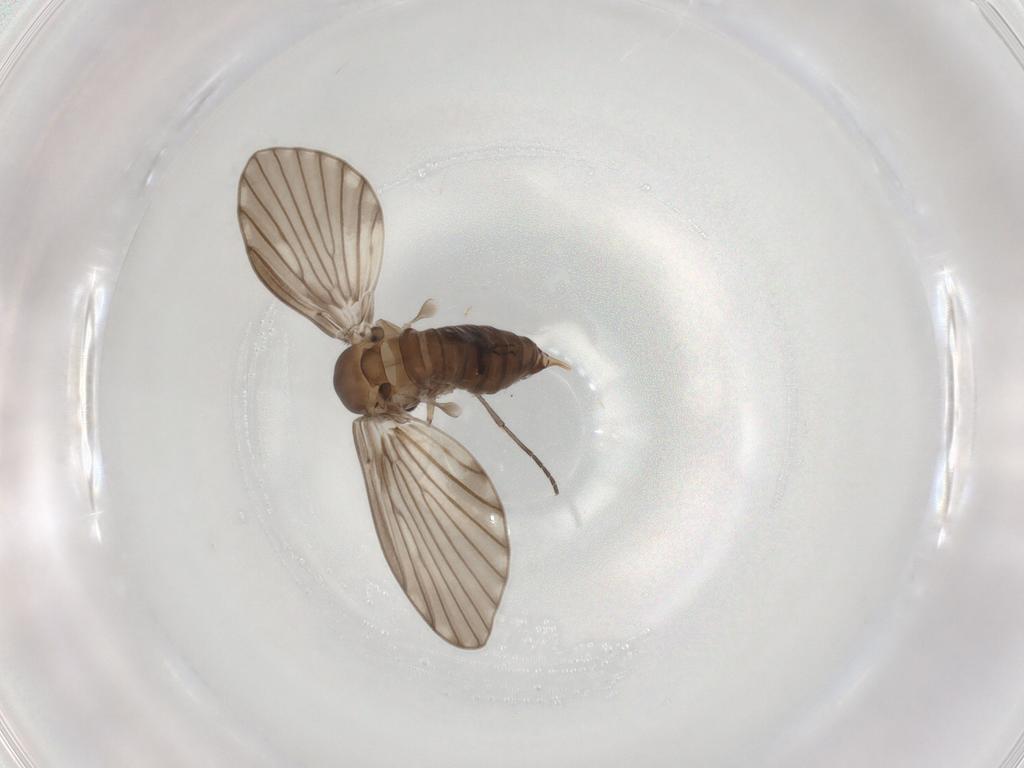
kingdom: Animalia
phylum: Arthropoda
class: Insecta
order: Diptera
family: Psychodidae
